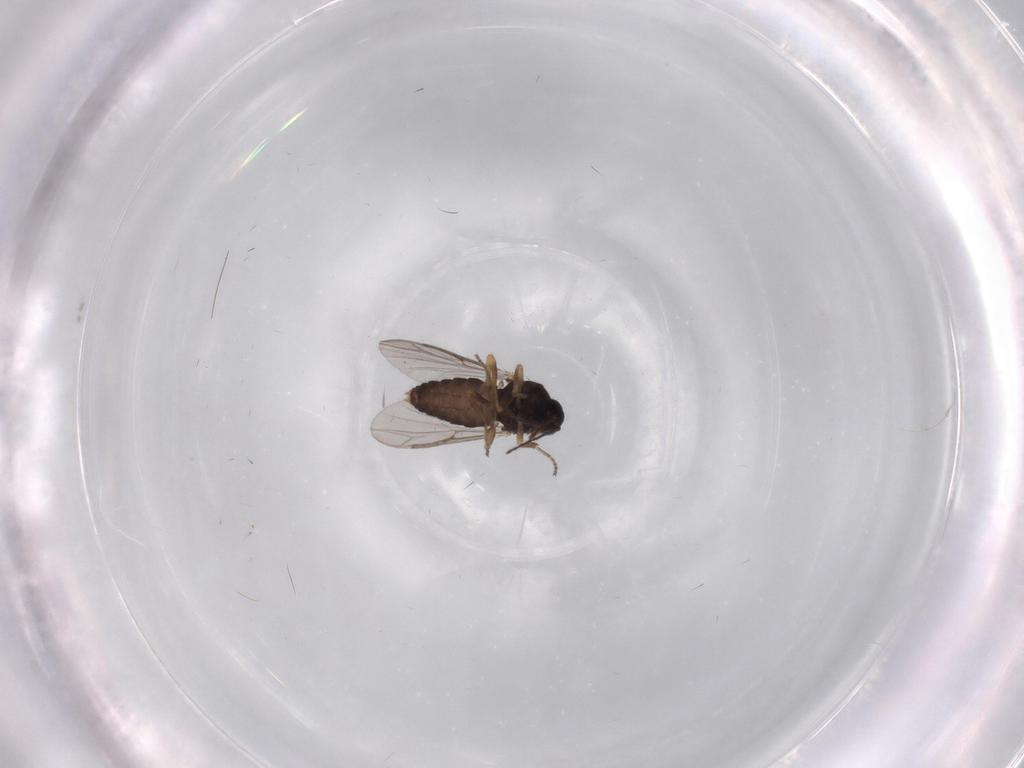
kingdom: Animalia
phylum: Arthropoda
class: Insecta
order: Diptera
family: Ceratopogonidae
